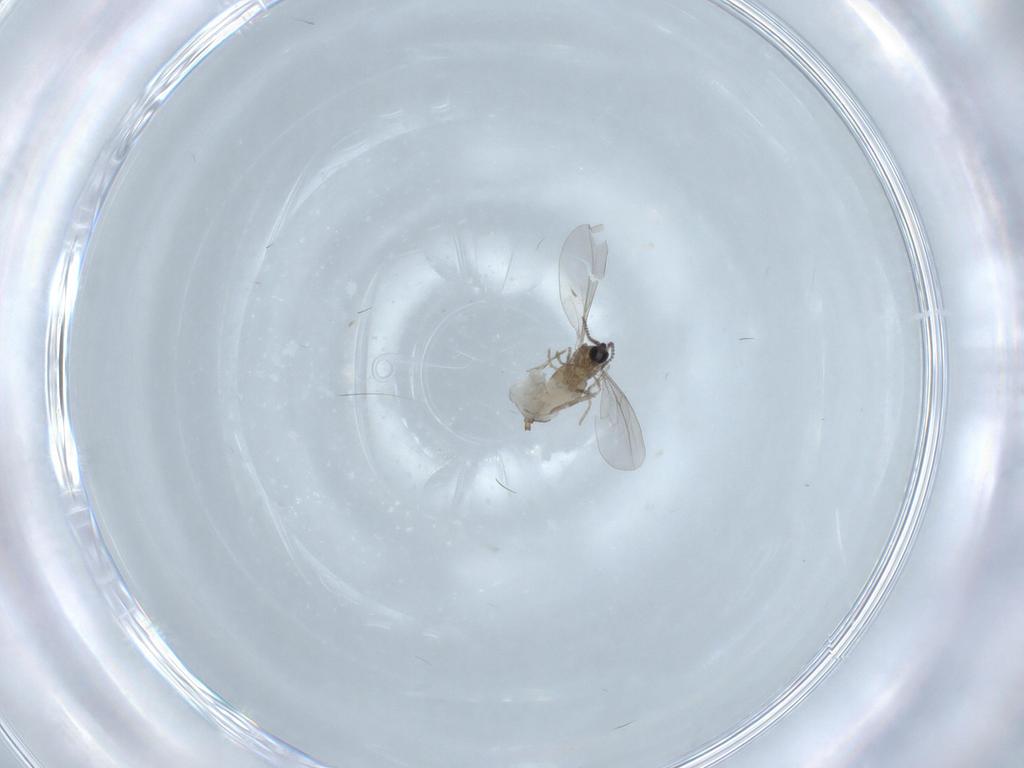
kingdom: Animalia
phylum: Arthropoda
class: Insecta
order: Diptera
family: Cecidomyiidae
